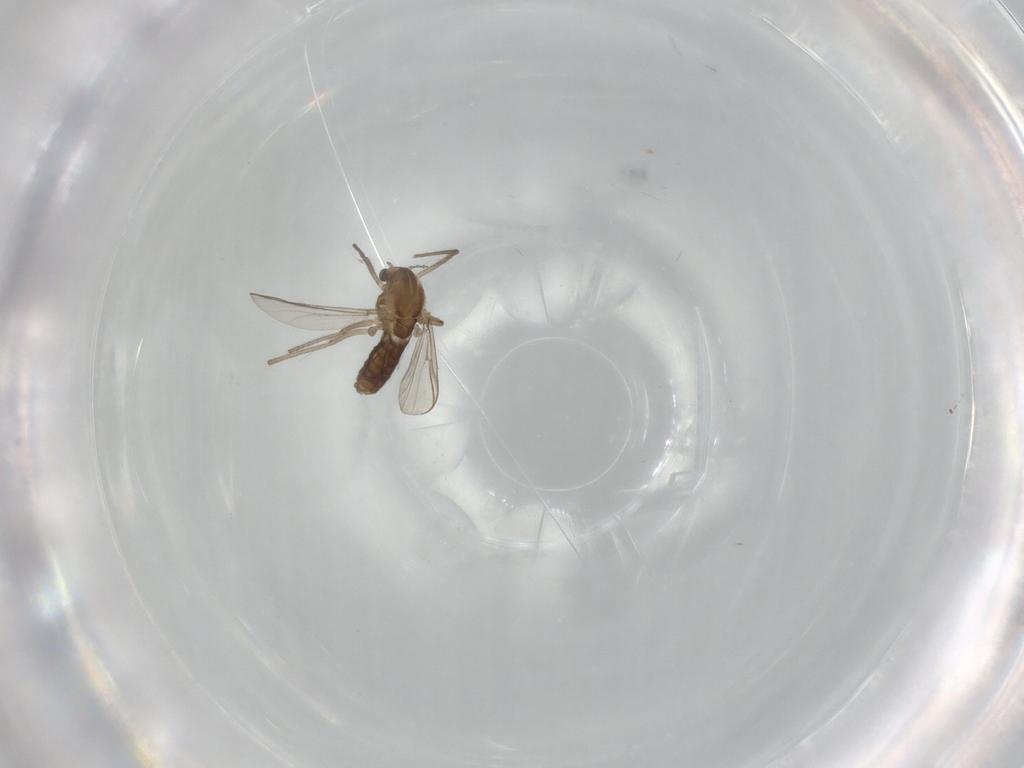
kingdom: Animalia
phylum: Arthropoda
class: Insecta
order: Diptera
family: Chironomidae
